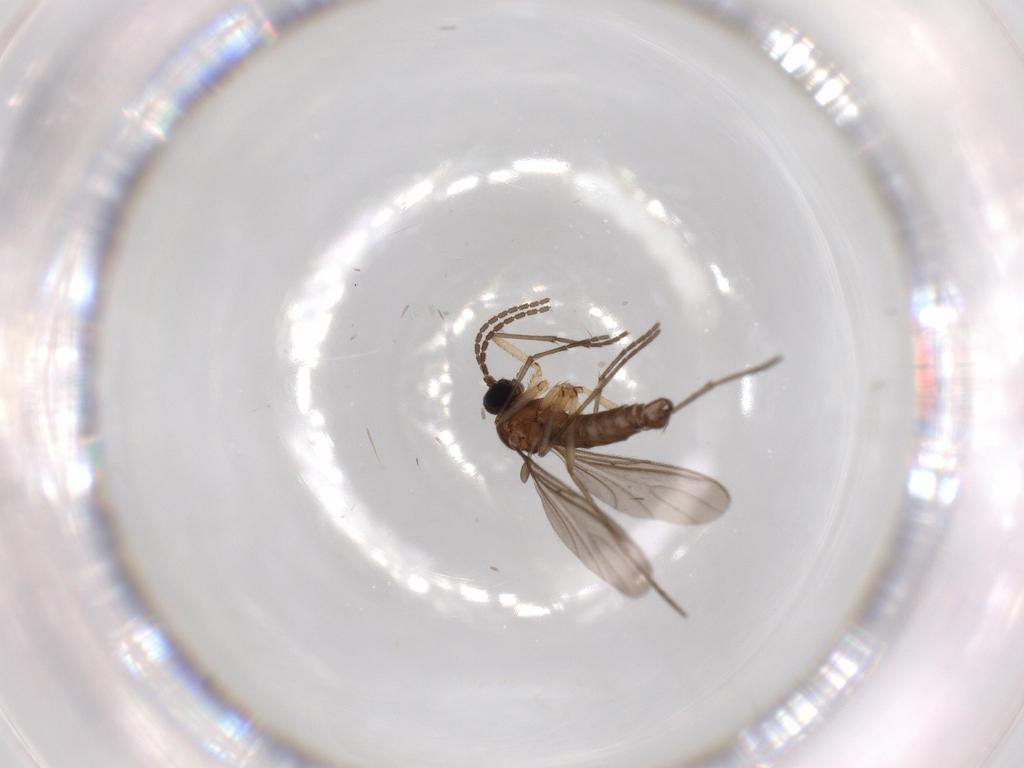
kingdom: Animalia
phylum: Arthropoda
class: Insecta
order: Diptera
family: Sciaridae
